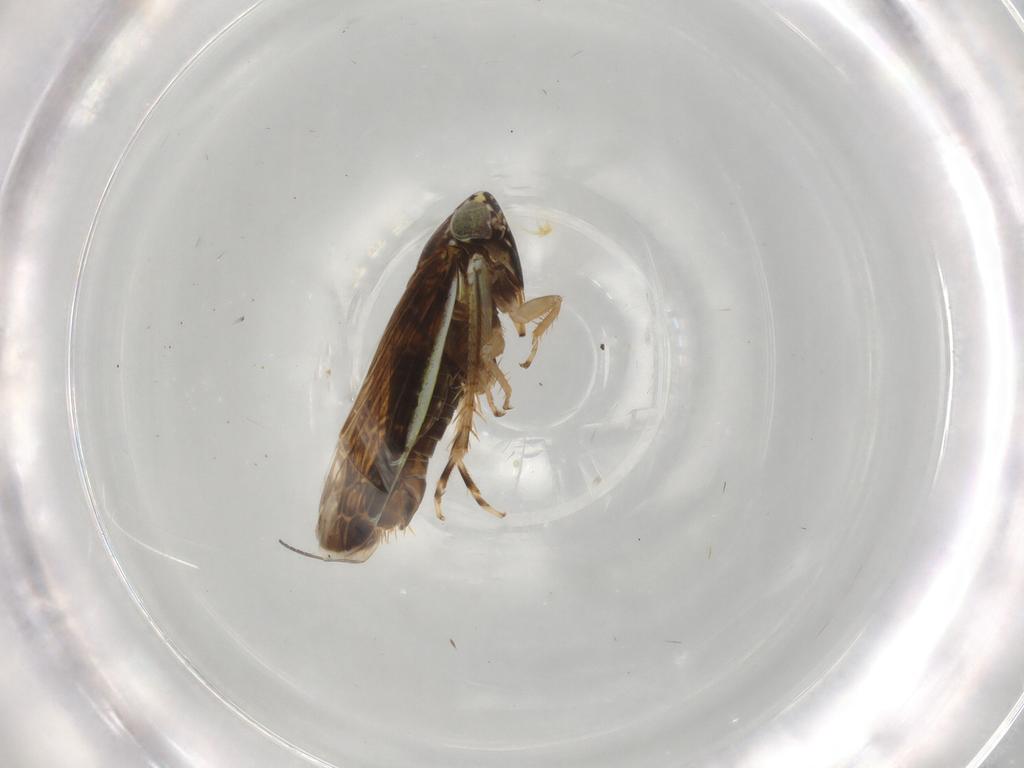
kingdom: Animalia
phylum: Arthropoda
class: Insecta
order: Hemiptera
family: Cicadellidae
